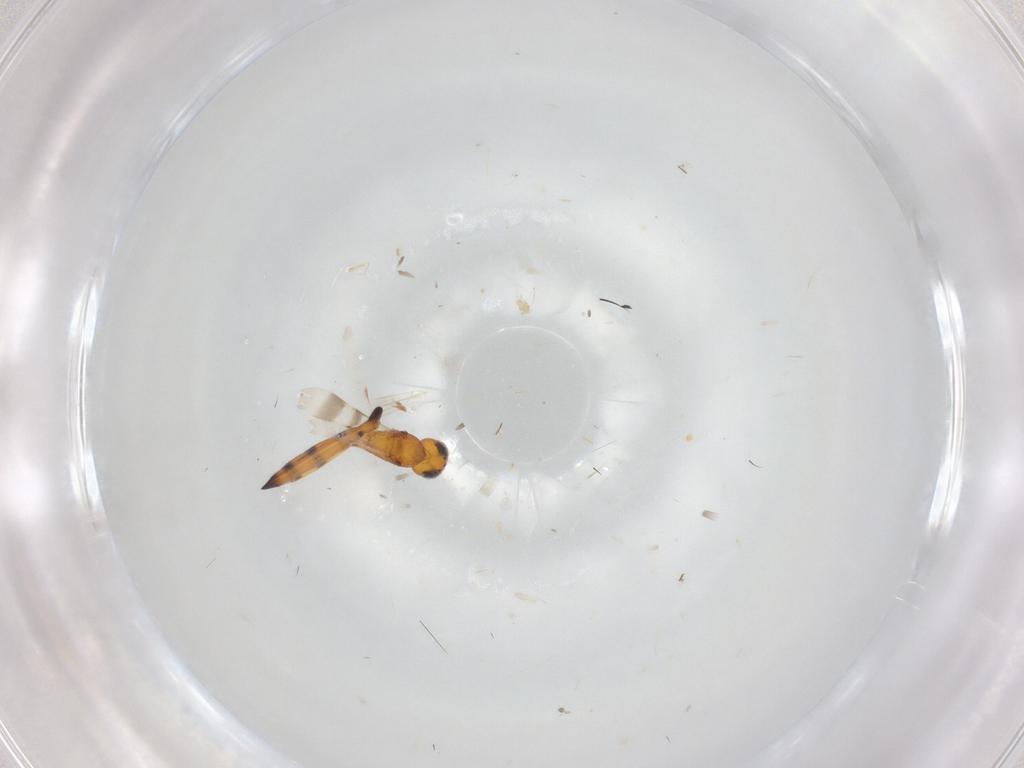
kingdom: Animalia
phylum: Arthropoda
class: Insecta
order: Hymenoptera
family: Scelionidae
